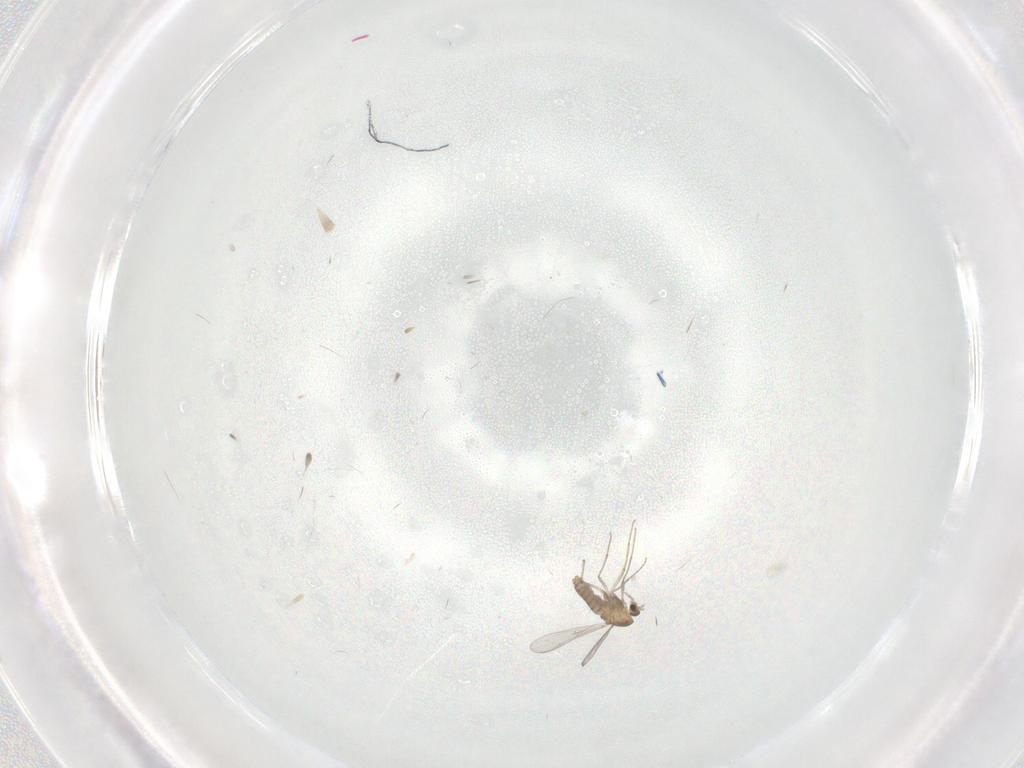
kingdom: Animalia
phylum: Arthropoda
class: Insecta
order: Diptera
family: Chironomidae
